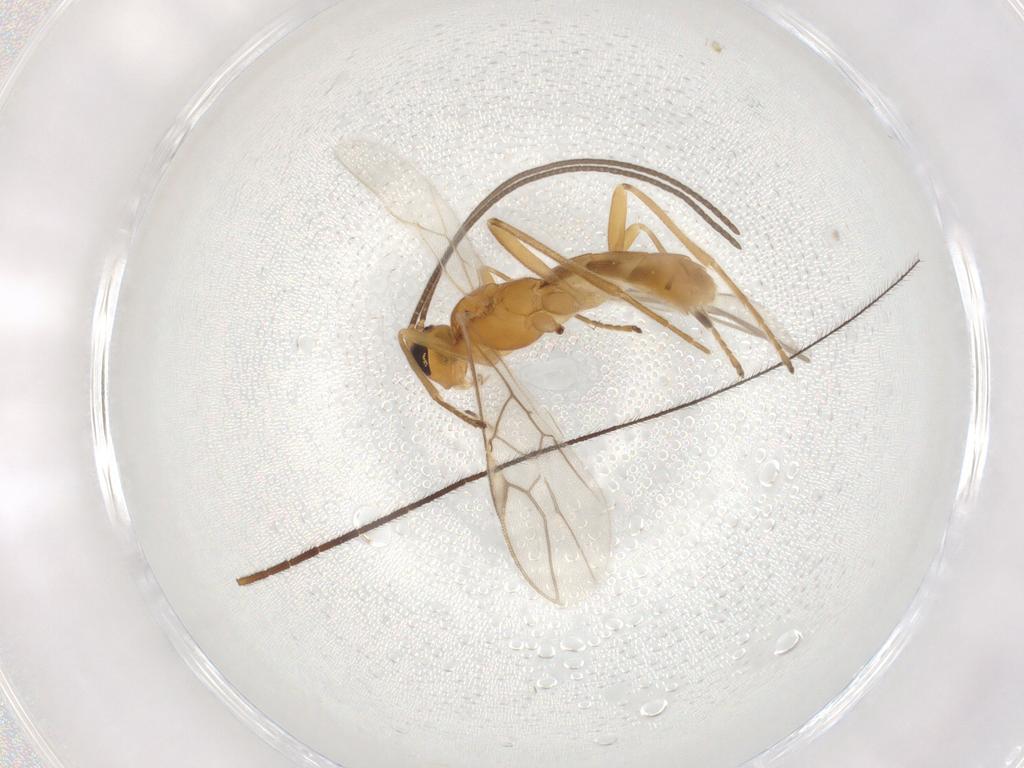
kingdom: Animalia
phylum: Arthropoda
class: Insecta
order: Hymenoptera
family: Braconidae
